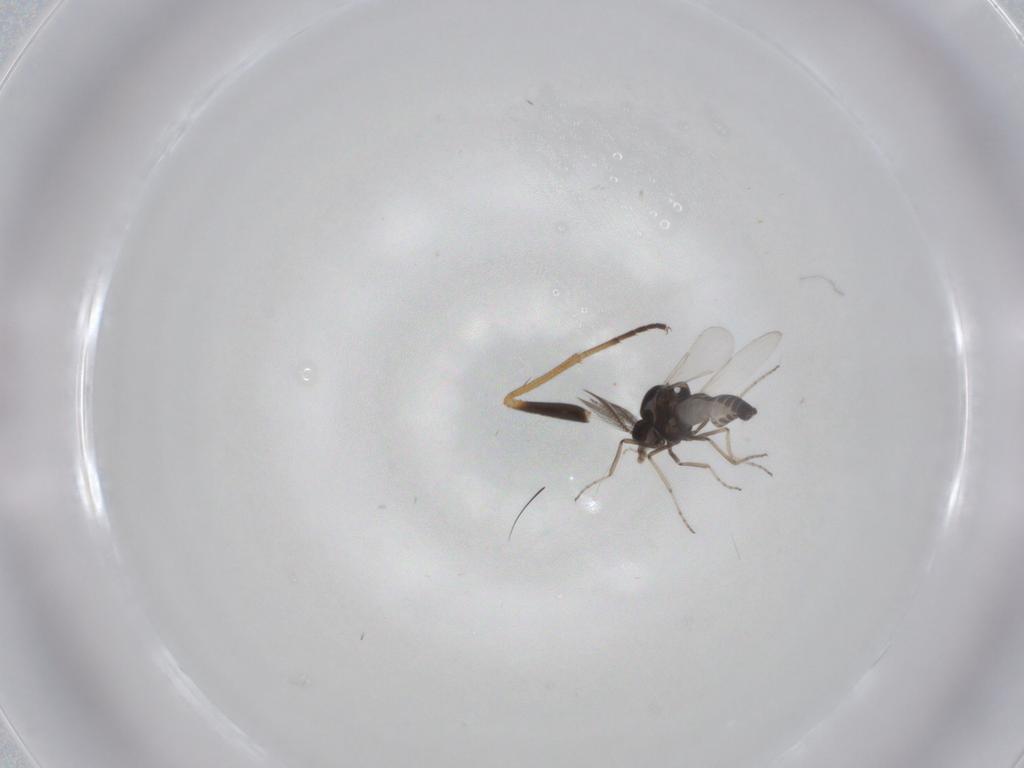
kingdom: Animalia
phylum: Arthropoda
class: Insecta
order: Diptera
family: Ceratopogonidae
